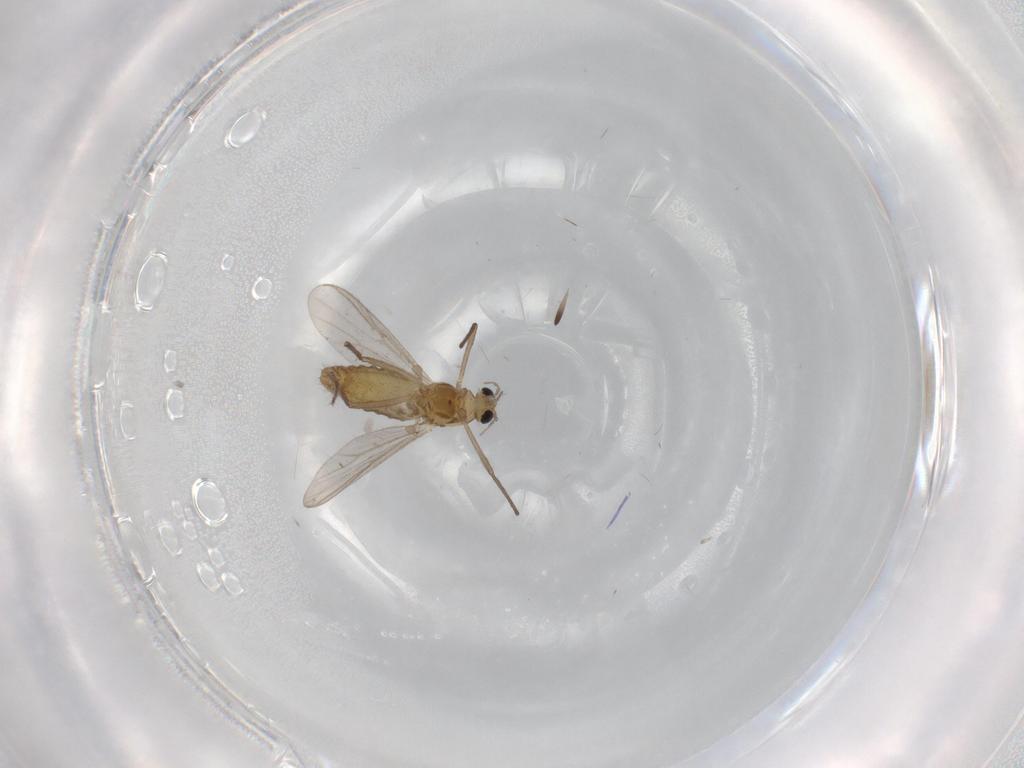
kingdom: Animalia
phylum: Arthropoda
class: Insecta
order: Diptera
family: Chironomidae
